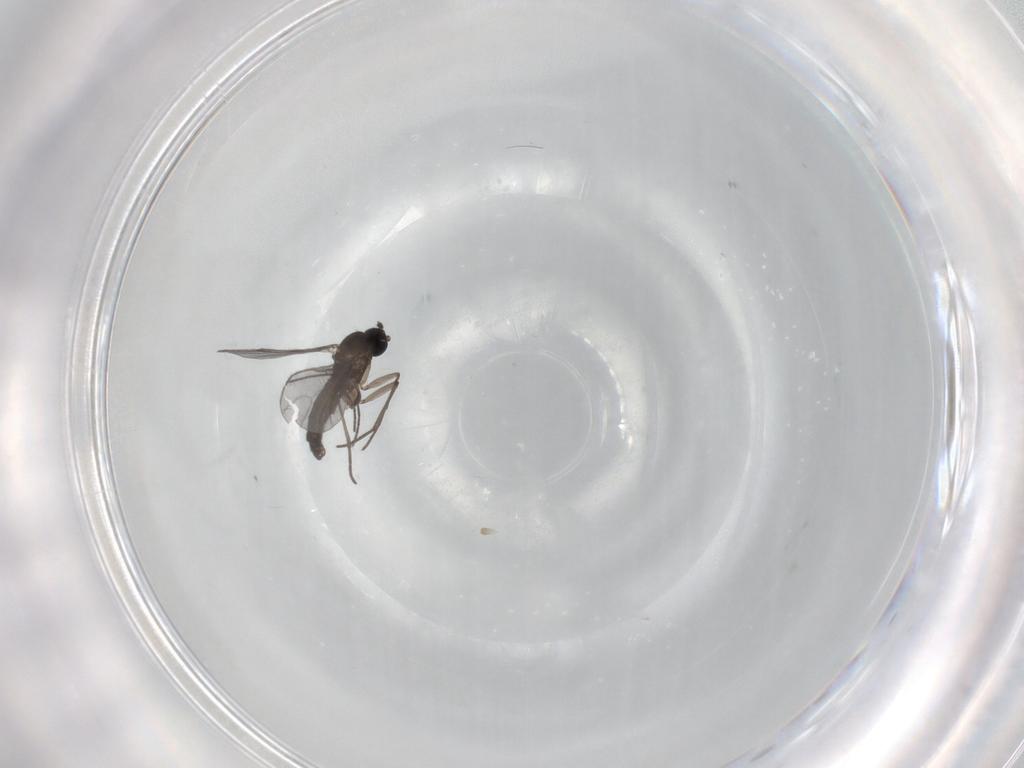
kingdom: Animalia
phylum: Arthropoda
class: Insecta
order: Diptera
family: Sciaridae
